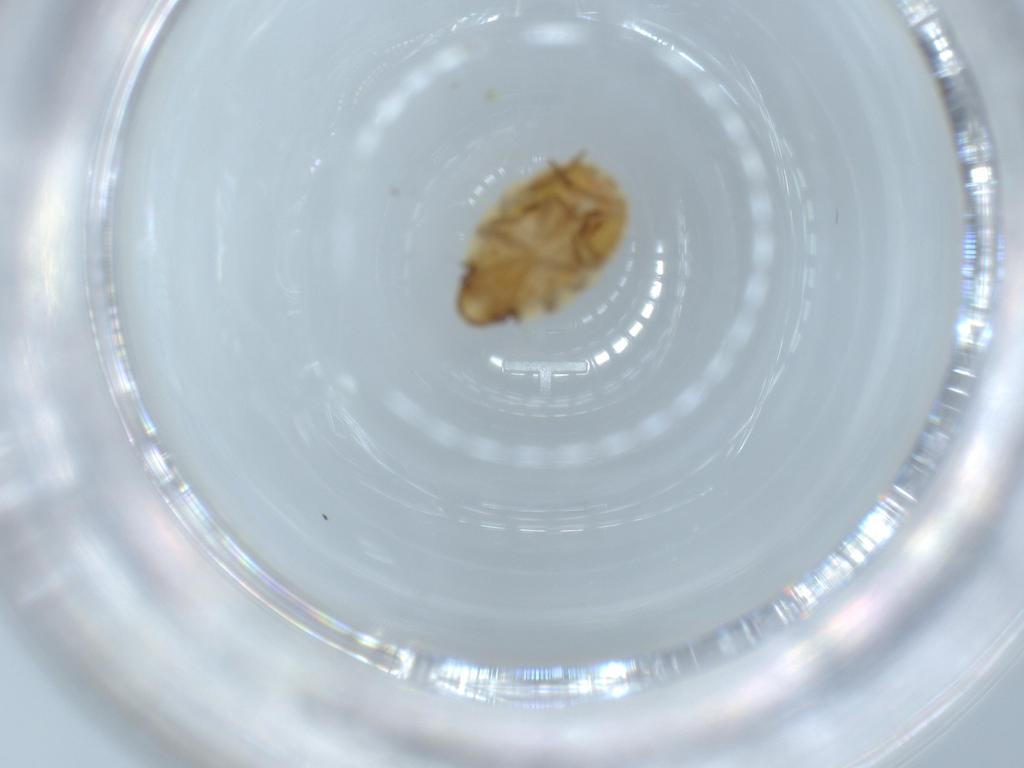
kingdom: Animalia
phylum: Arthropoda
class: Insecta
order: Hemiptera
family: Flatidae
